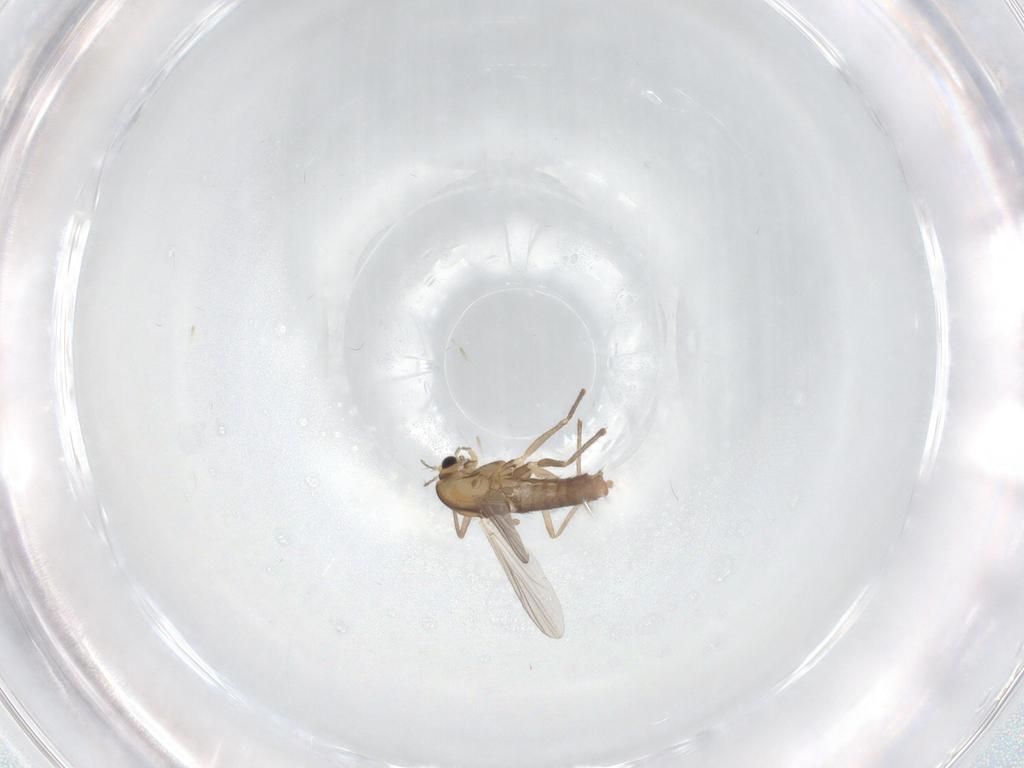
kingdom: Animalia
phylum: Arthropoda
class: Insecta
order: Diptera
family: Chironomidae
